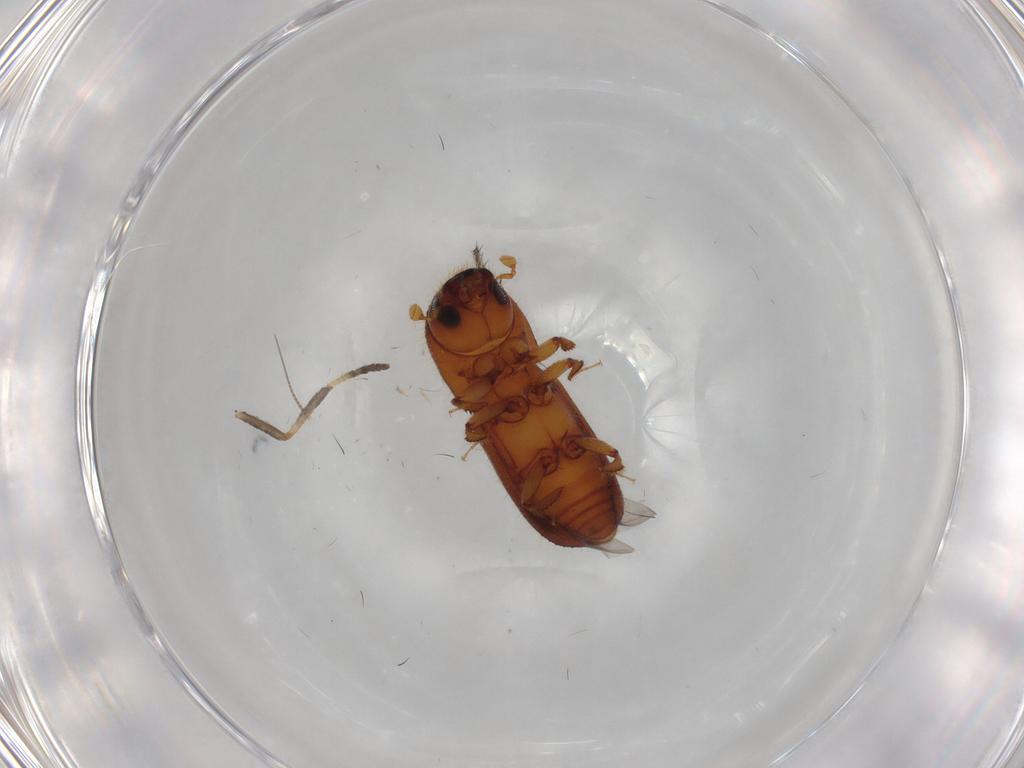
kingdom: Animalia
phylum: Arthropoda
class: Insecta
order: Coleoptera
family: Curculionidae
